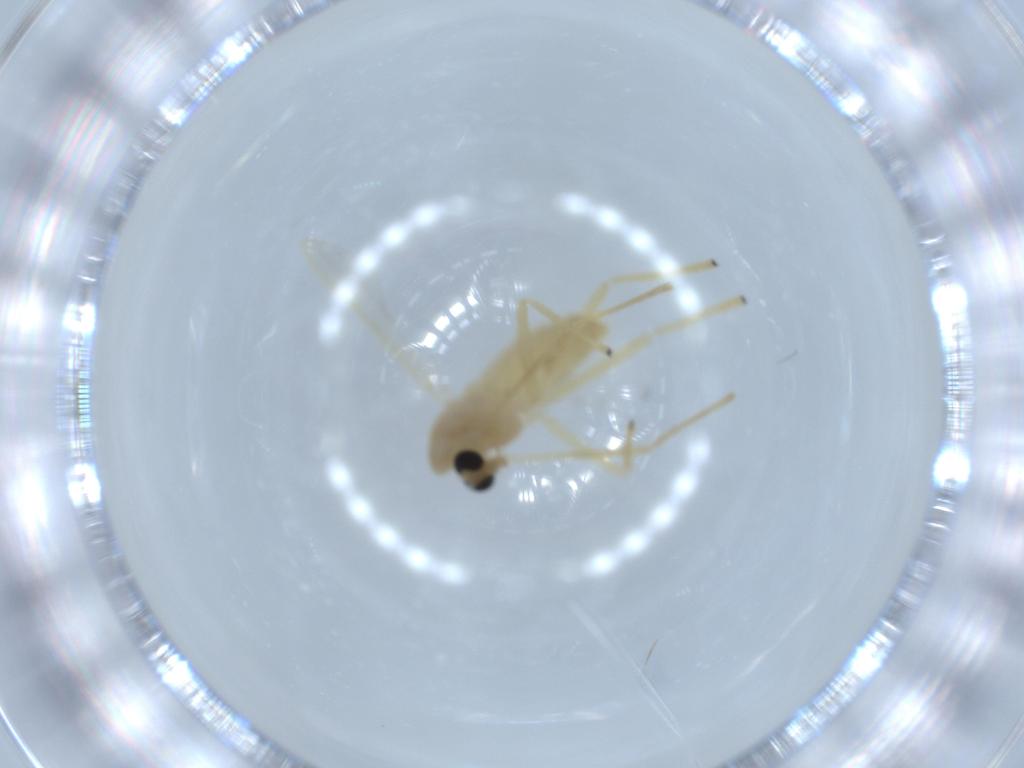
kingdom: Animalia
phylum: Arthropoda
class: Insecta
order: Diptera
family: Chironomidae
